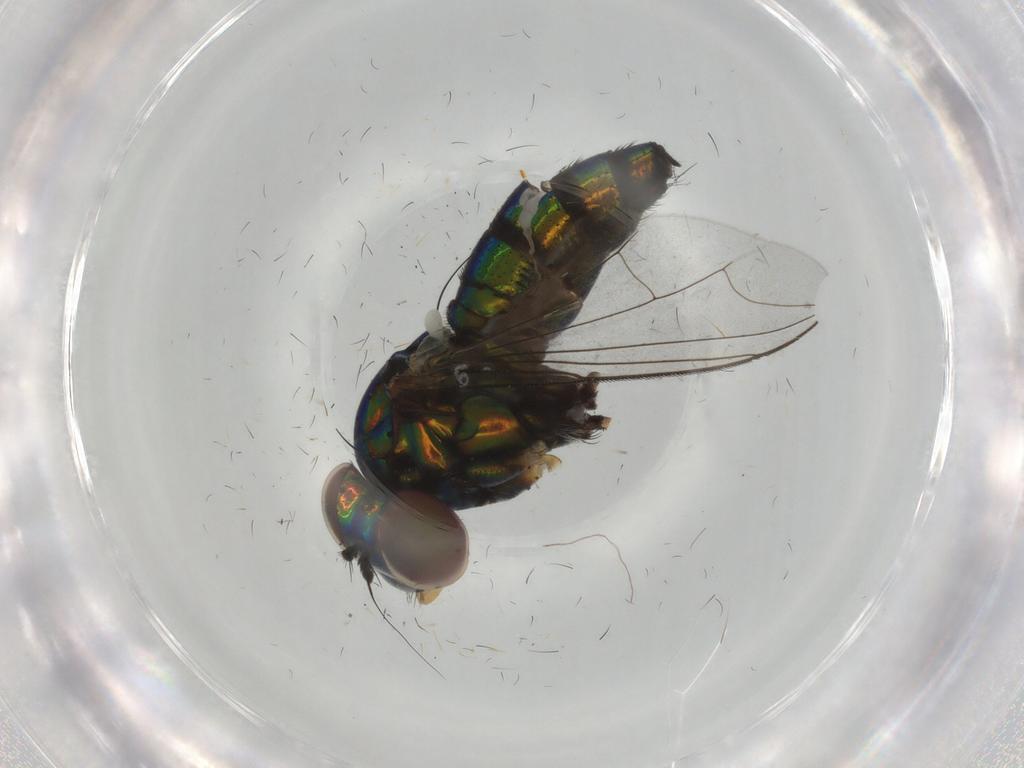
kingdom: Animalia
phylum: Arthropoda
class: Insecta
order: Diptera
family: Dolichopodidae
